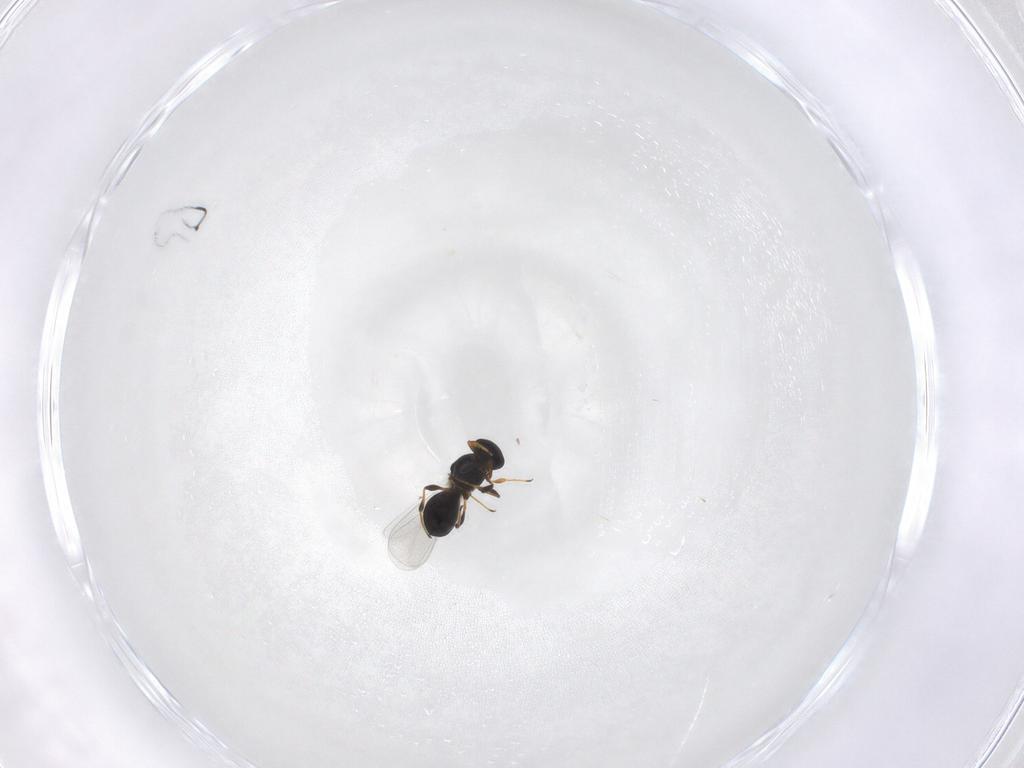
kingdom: Animalia
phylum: Arthropoda
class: Insecta
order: Hymenoptera
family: Platygastridae
